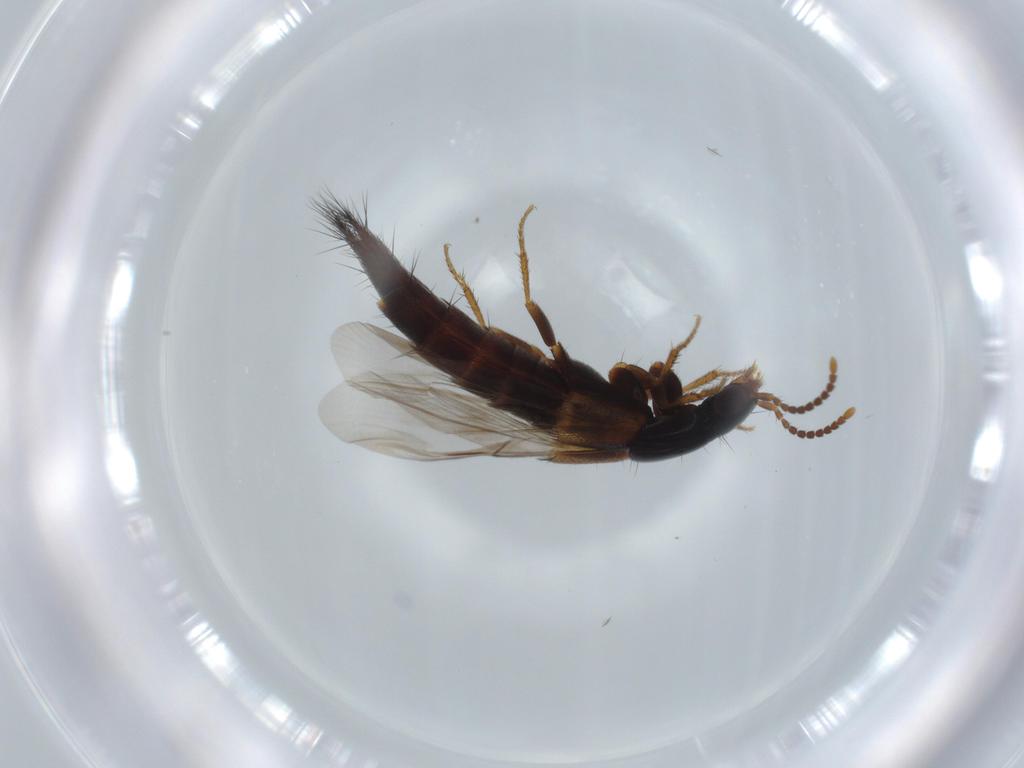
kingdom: Animalia
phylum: Arthropoda
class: Insecta
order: Coleoptera
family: Staphylinidae
